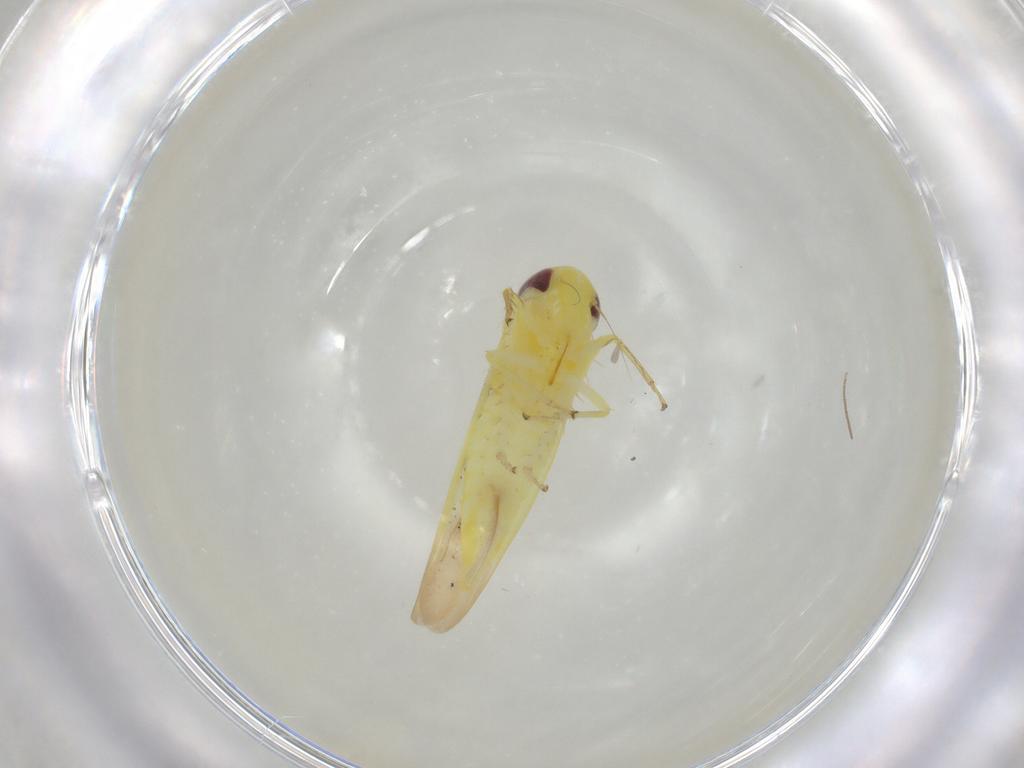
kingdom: Animalia
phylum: Arthropoda
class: Insecta
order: Hemiptera
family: Cicadellidae
